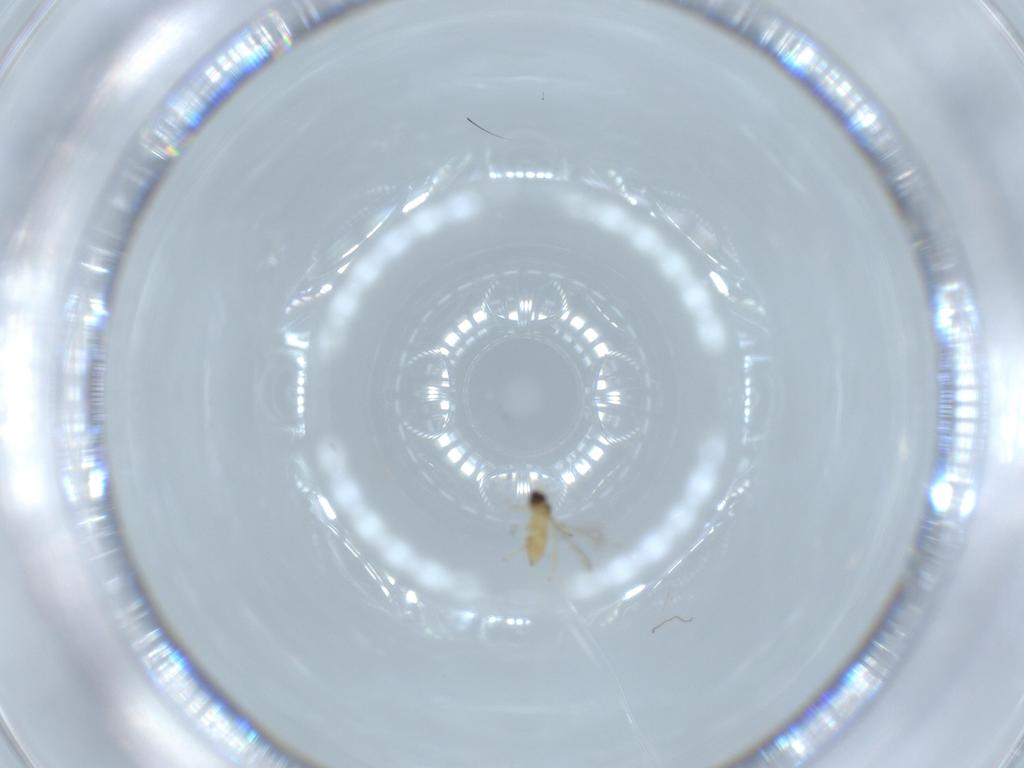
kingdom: Animalia
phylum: Arthropoda
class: Insecta
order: Hymenoptera
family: Mymaridae
